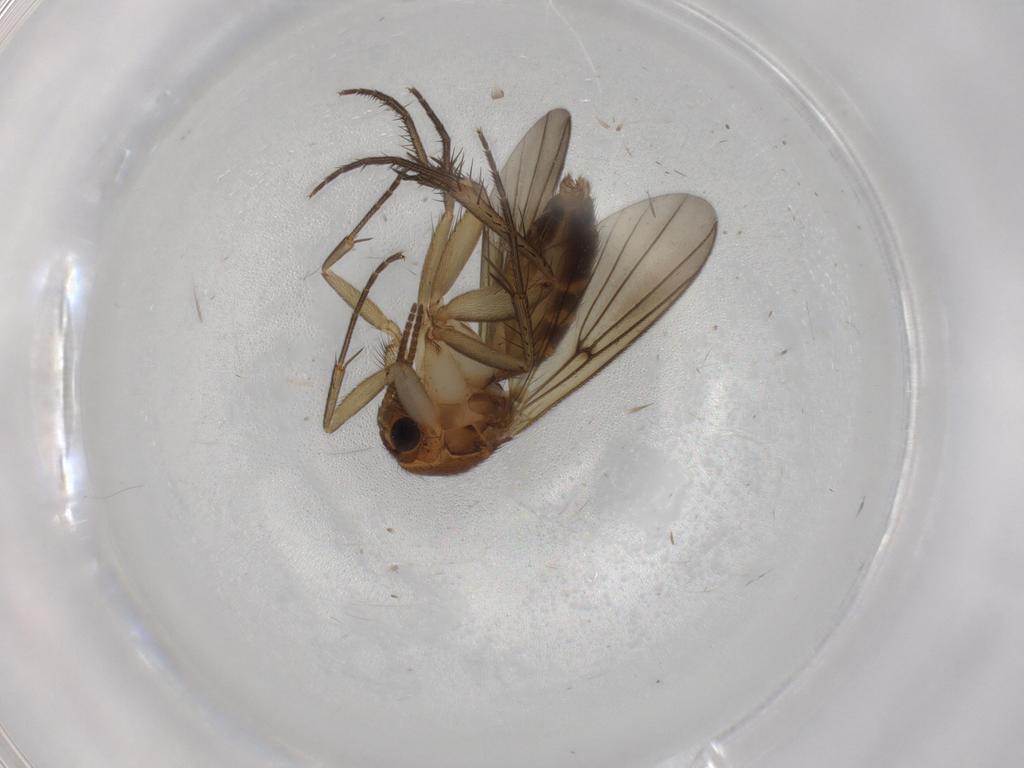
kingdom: Animalia
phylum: Arthropoda
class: Insecta
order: Diptera
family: Mycetophilidae
